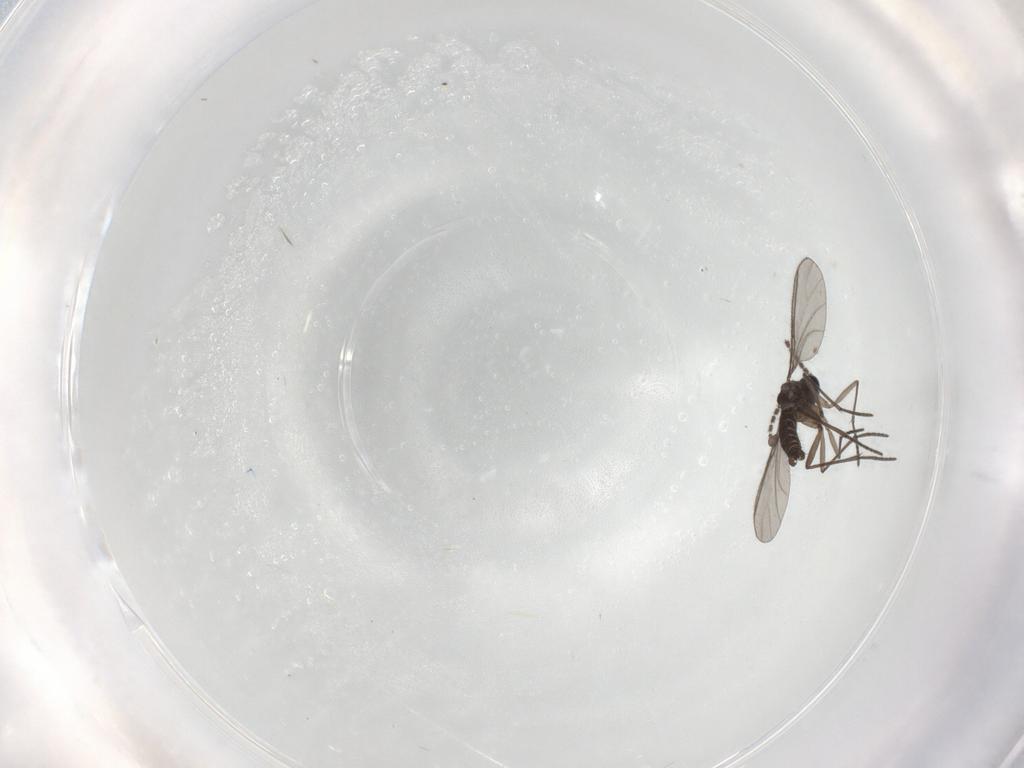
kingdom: Animalia
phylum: Arthropoda
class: Insecta
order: Diptera
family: Sciaridae
